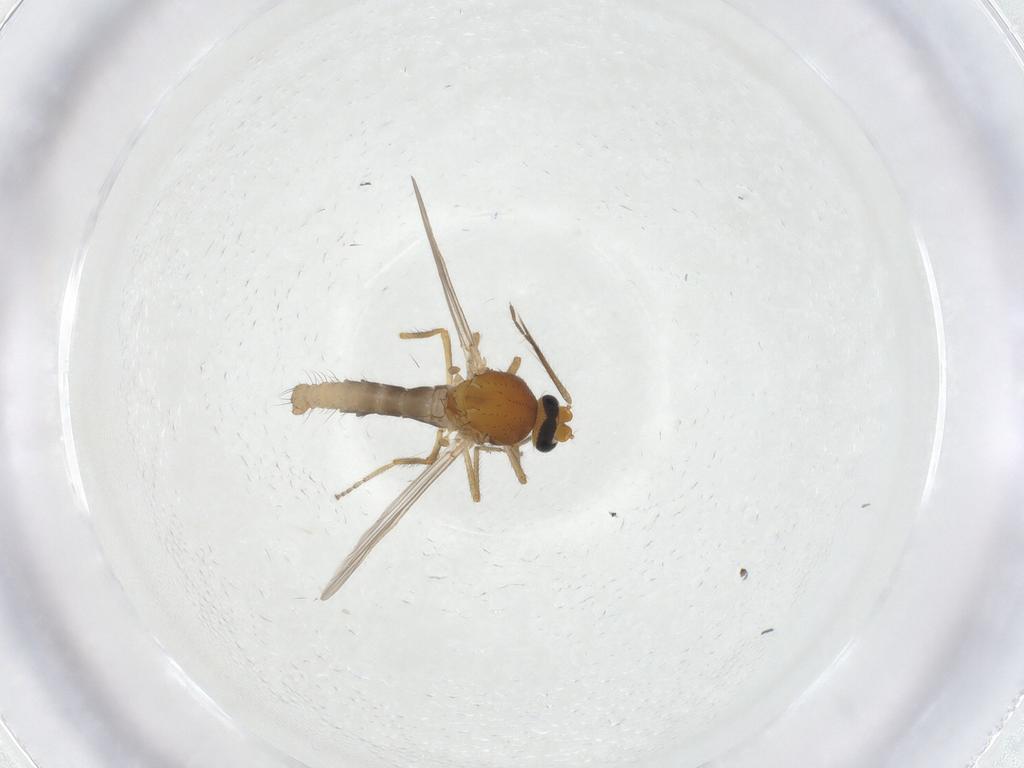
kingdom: Animalia
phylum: Arthropoda
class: Insecta
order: Diptera
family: Ceratopogonidae
